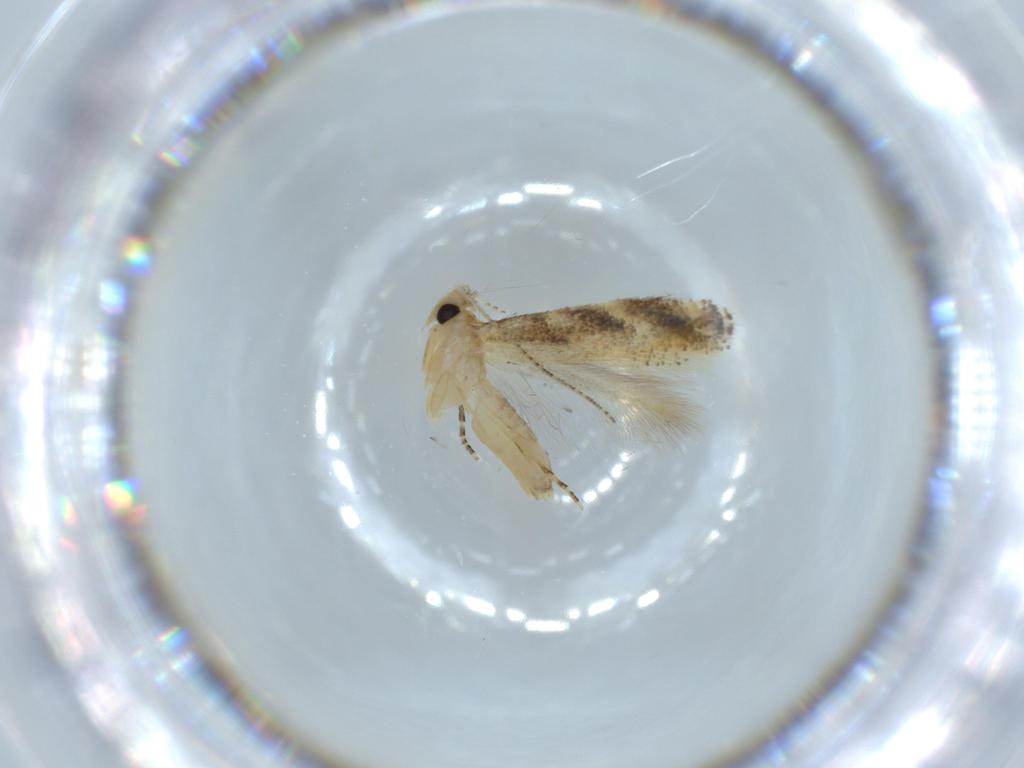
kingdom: Animalia
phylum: Arthropoda
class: Insecta
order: Lepidoptera
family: Bucculatricidae
